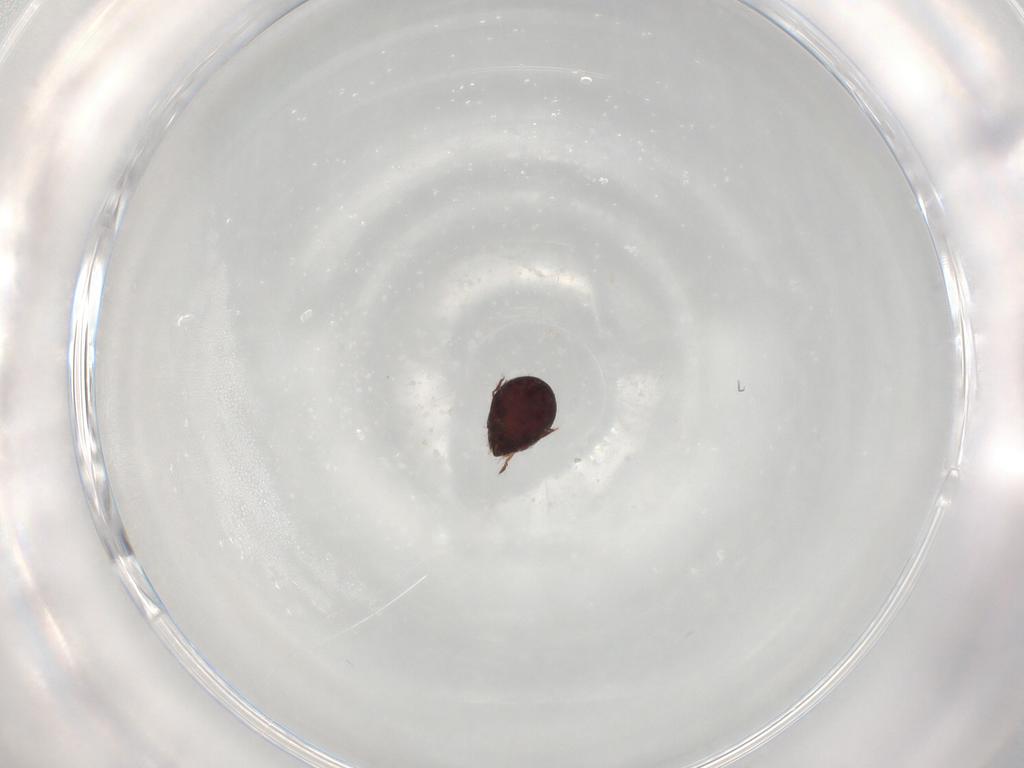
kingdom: Animalia
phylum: Arthropoda
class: Arachnida
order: Sarcoptiformes
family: Humerobatidae
